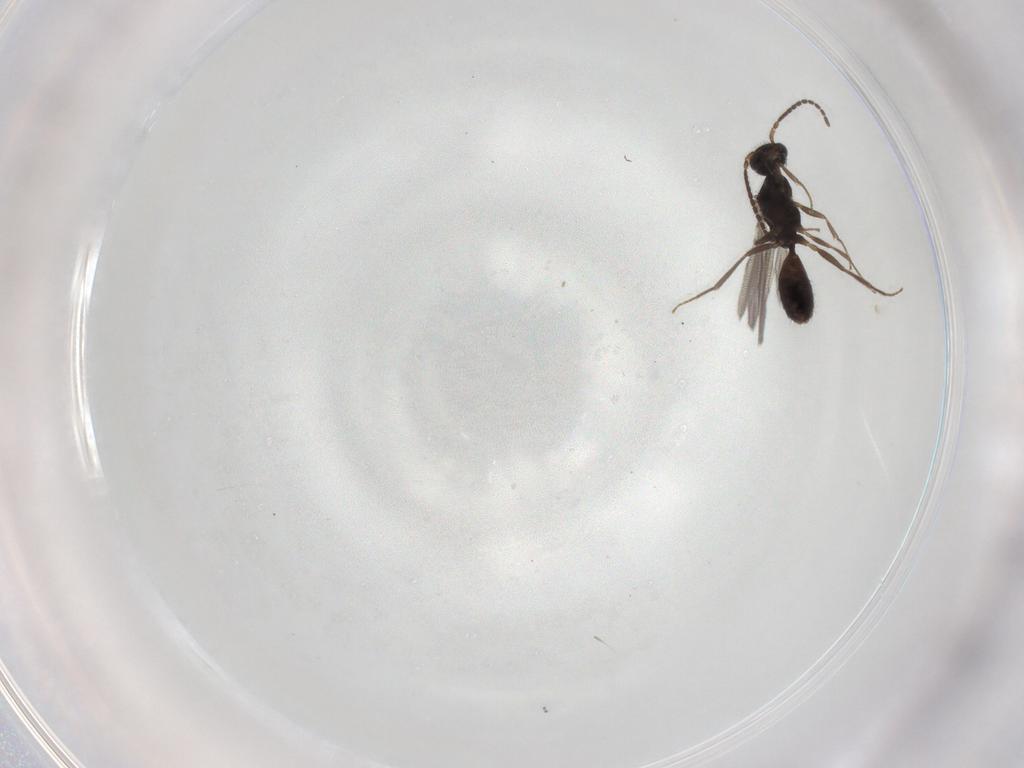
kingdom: Animalia
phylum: Arthropoda
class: Insecta
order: Hymenoptera
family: Bethylidae
